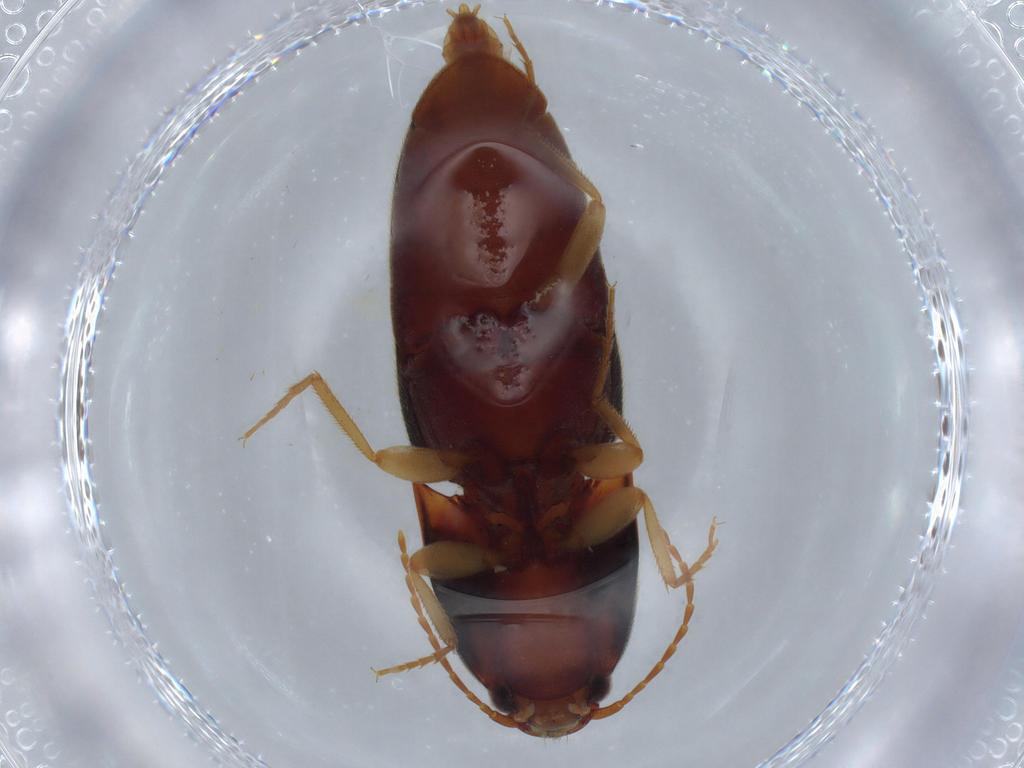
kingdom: Animalia
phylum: Arthropoda
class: Insecta
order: Coleoptera
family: Elateridae
